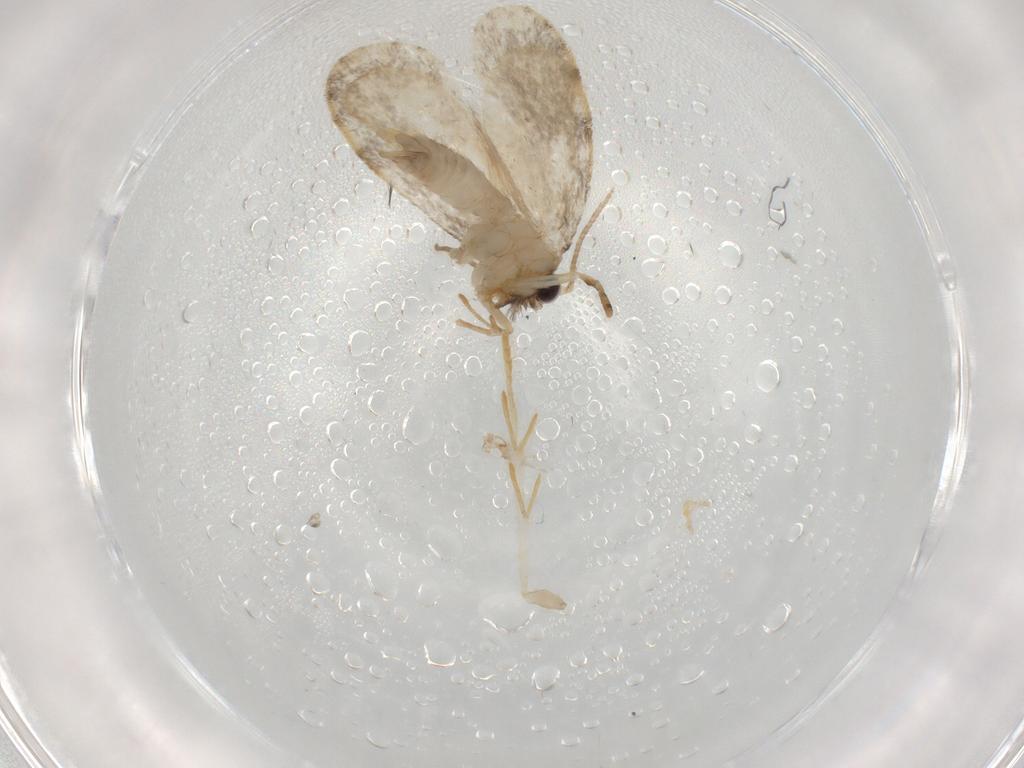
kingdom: Animalia
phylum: Arthropoda
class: Insecta
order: Lepidoptera
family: Psychidae
